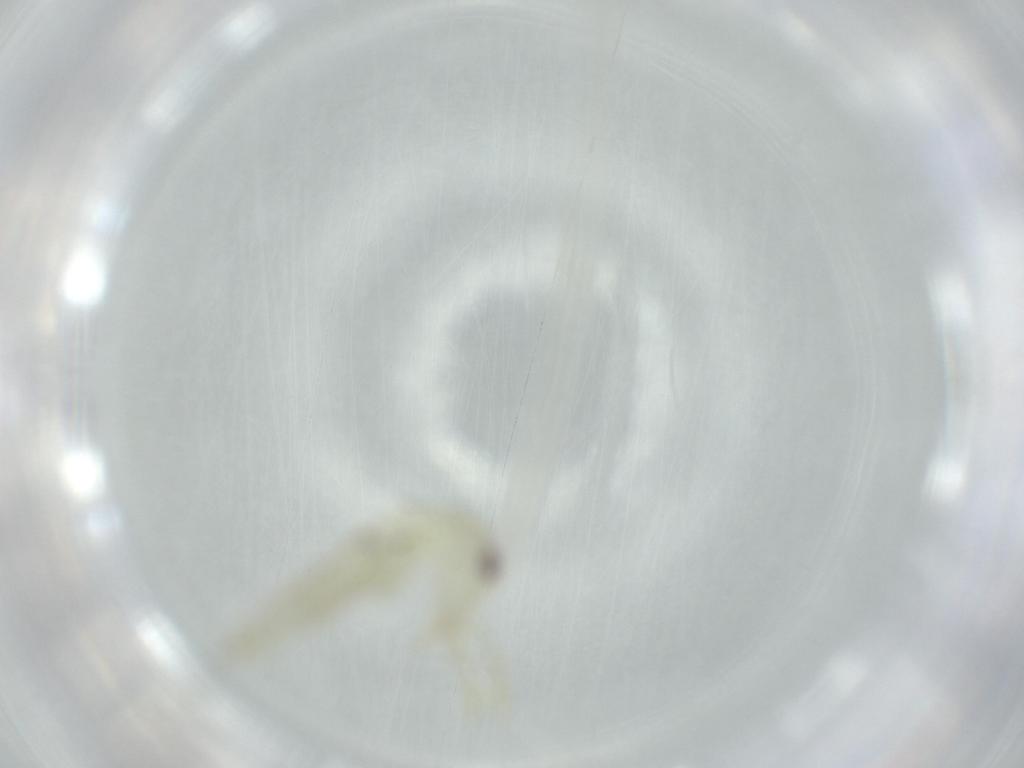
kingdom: Animalia
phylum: Arthropoda
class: Insecta
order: Orthoptera
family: Oecanthidae
